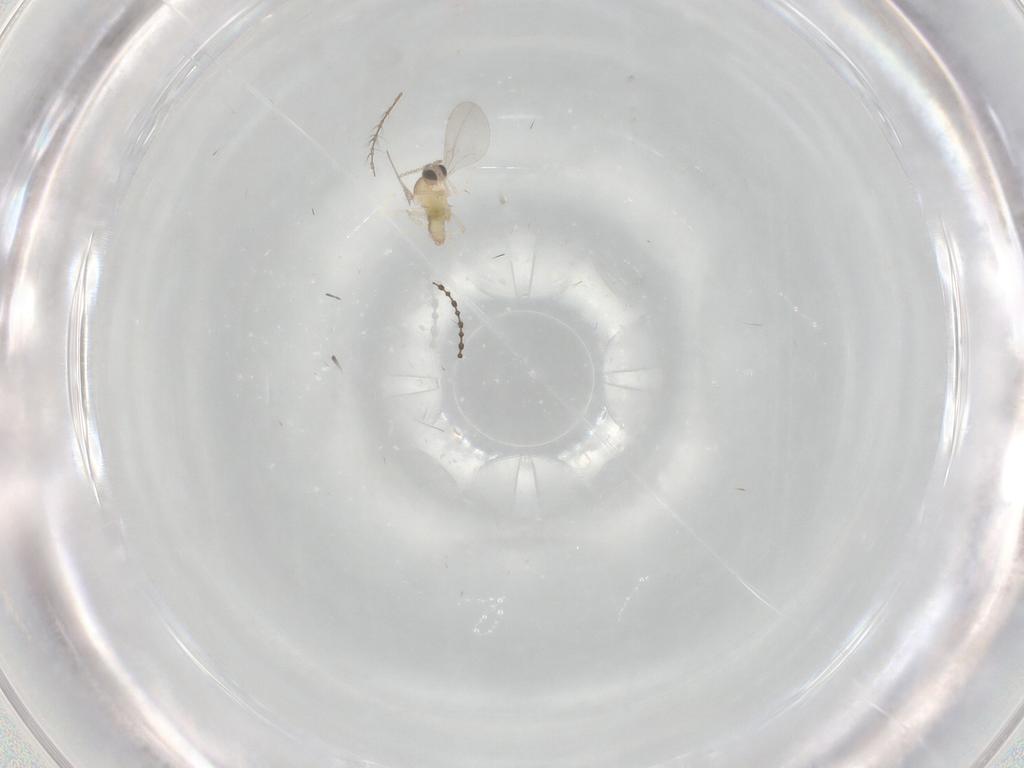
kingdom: Animalia
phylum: Arthropoda
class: Insecta
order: Diptera
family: Cecidomyiidae
